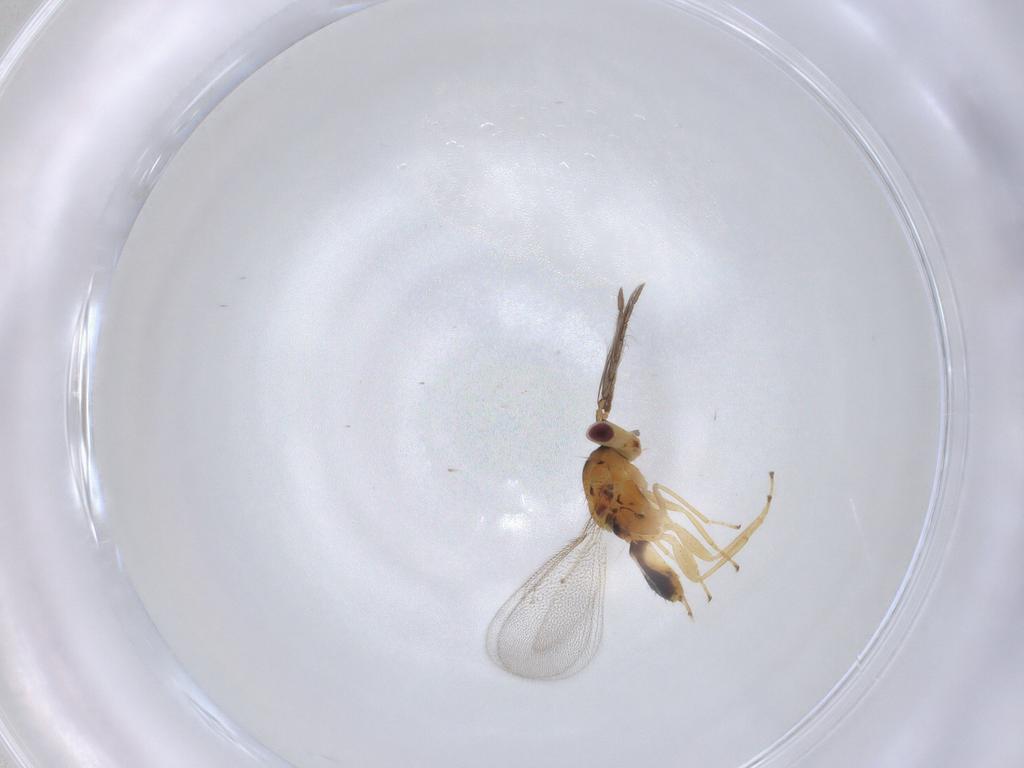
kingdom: Animalia
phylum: Arthropoda
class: Insecta
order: Hymenoptera
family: Eulophidae
